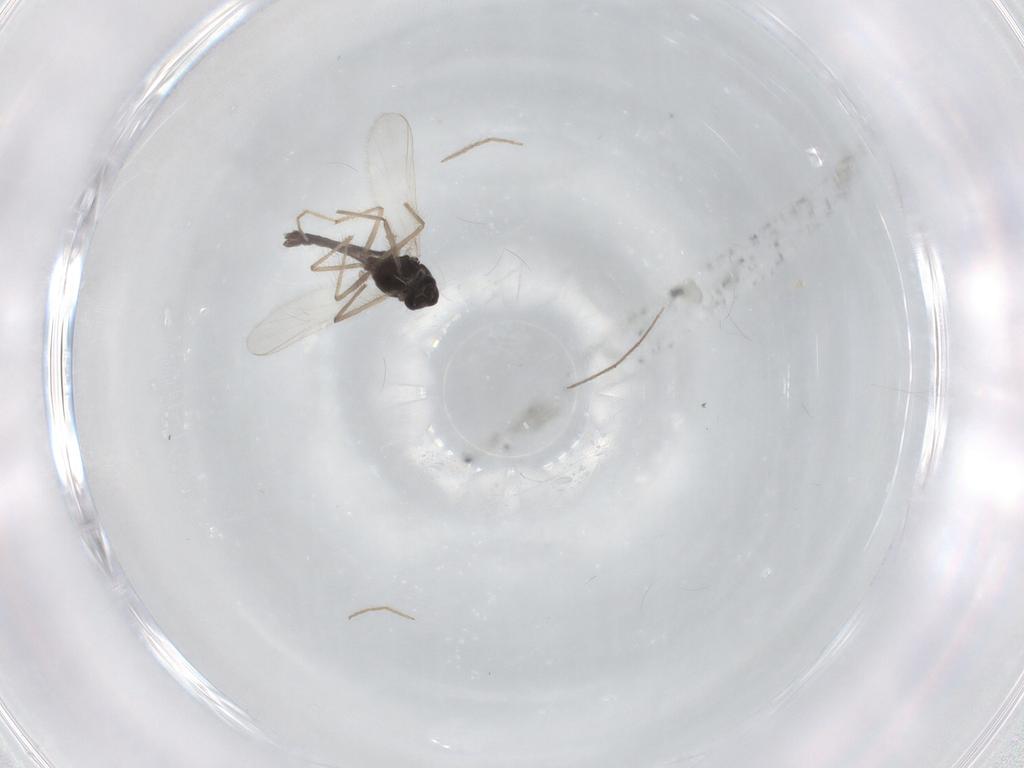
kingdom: Animalia
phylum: Arthropoda
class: Insecta
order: Diptera
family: Chironomidae
